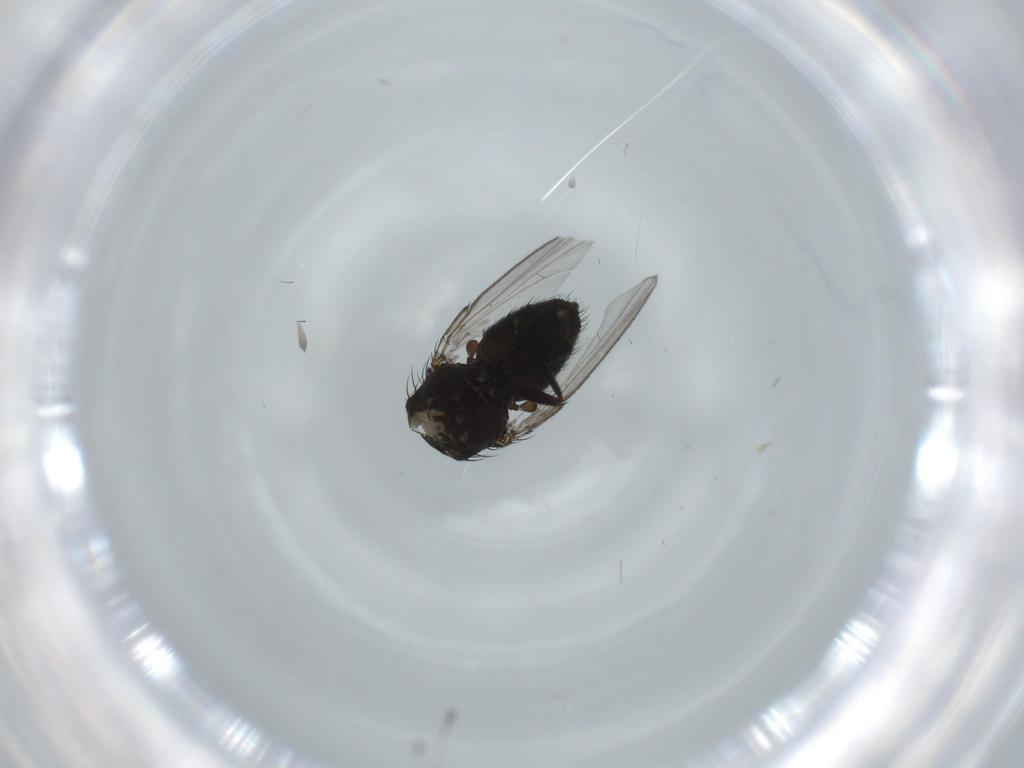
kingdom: Animalia
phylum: Arthropoda
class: Insecta
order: Diptera
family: Milichiidae
